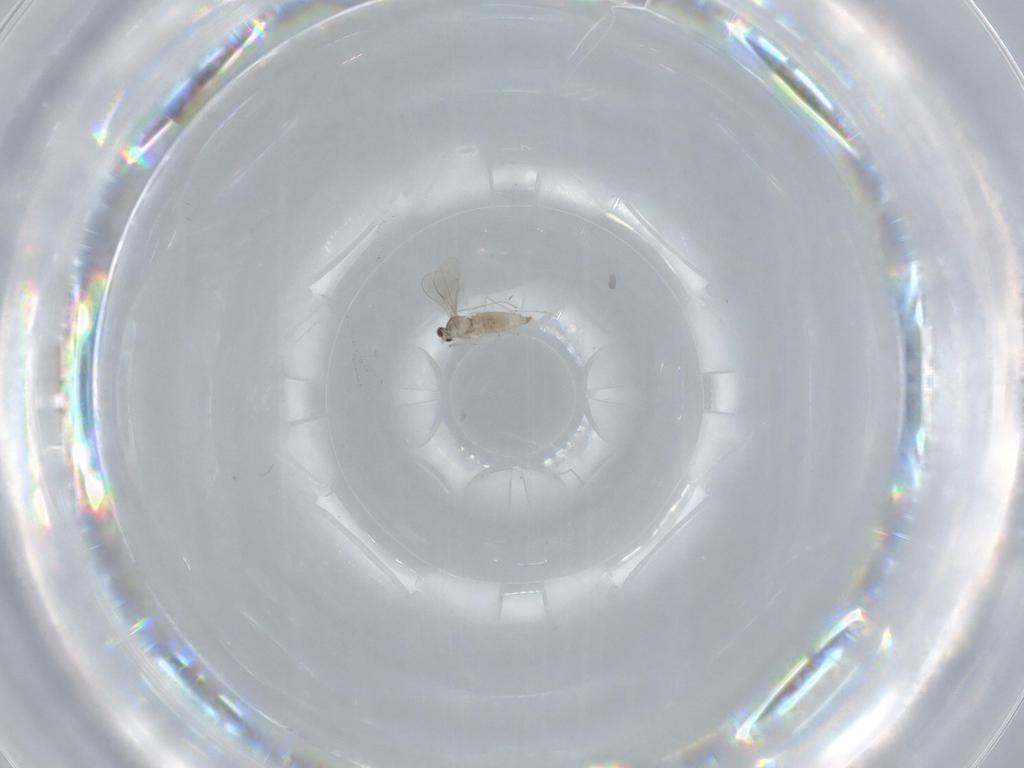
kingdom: Animalia
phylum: Arthropoda
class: Insecta
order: Diptera
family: Cecidomyiidae
